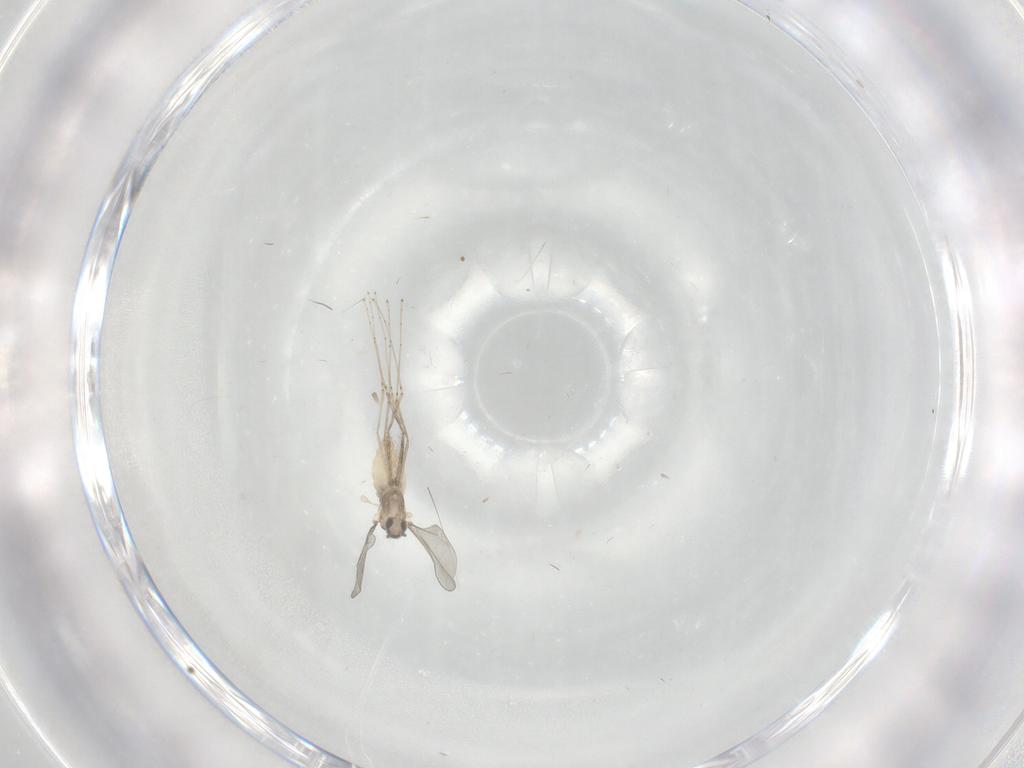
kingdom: Animalia
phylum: Arthropoda
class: Insecta
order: Diptera
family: Cecidomyiidae
